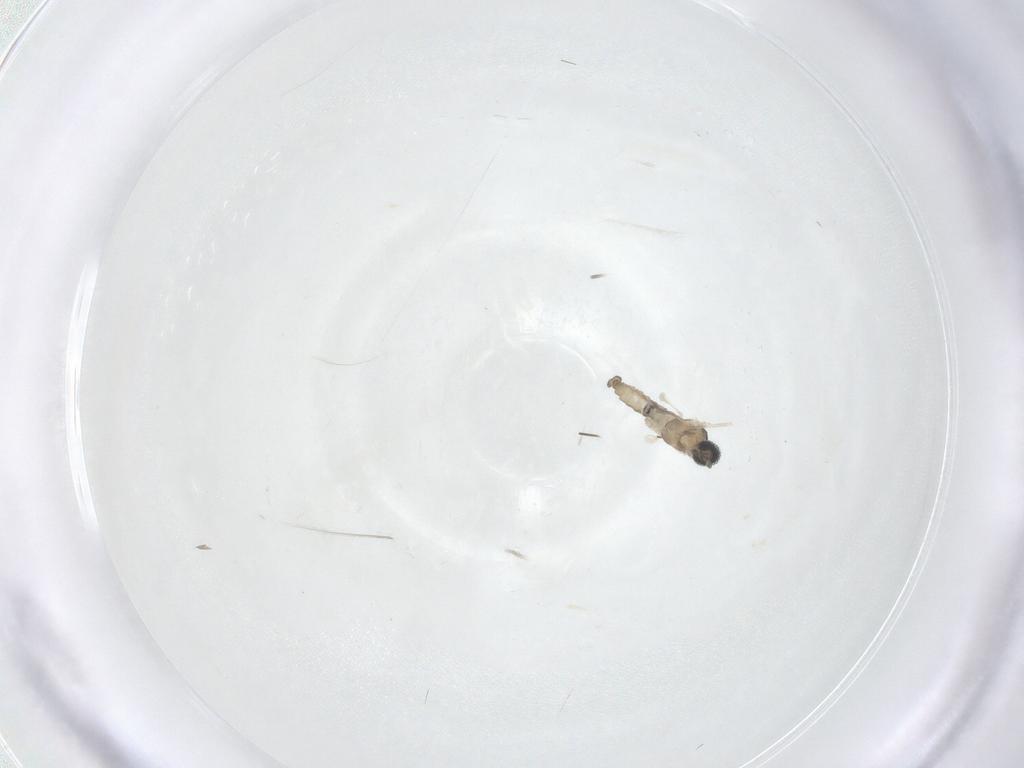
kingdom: Animalia
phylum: Arthropoda
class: Insecta
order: Diptera
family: Cecidomyiidae
